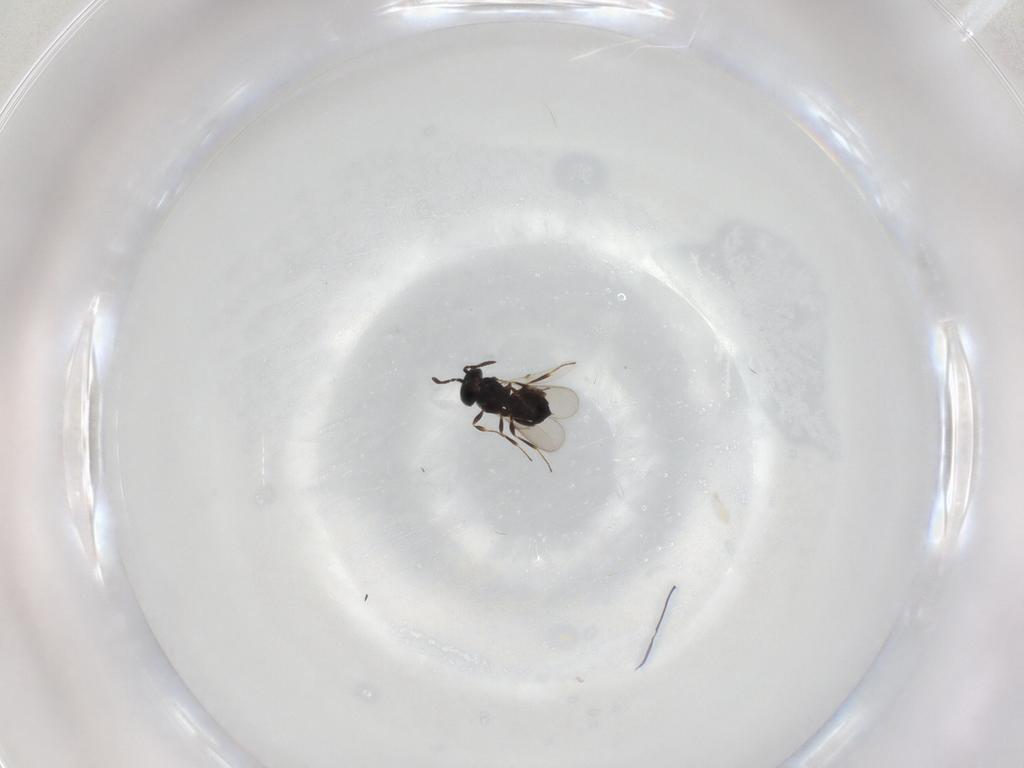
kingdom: Animalia
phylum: Arthropoda
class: Insecta
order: Hymenoptera
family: Scelionidae
